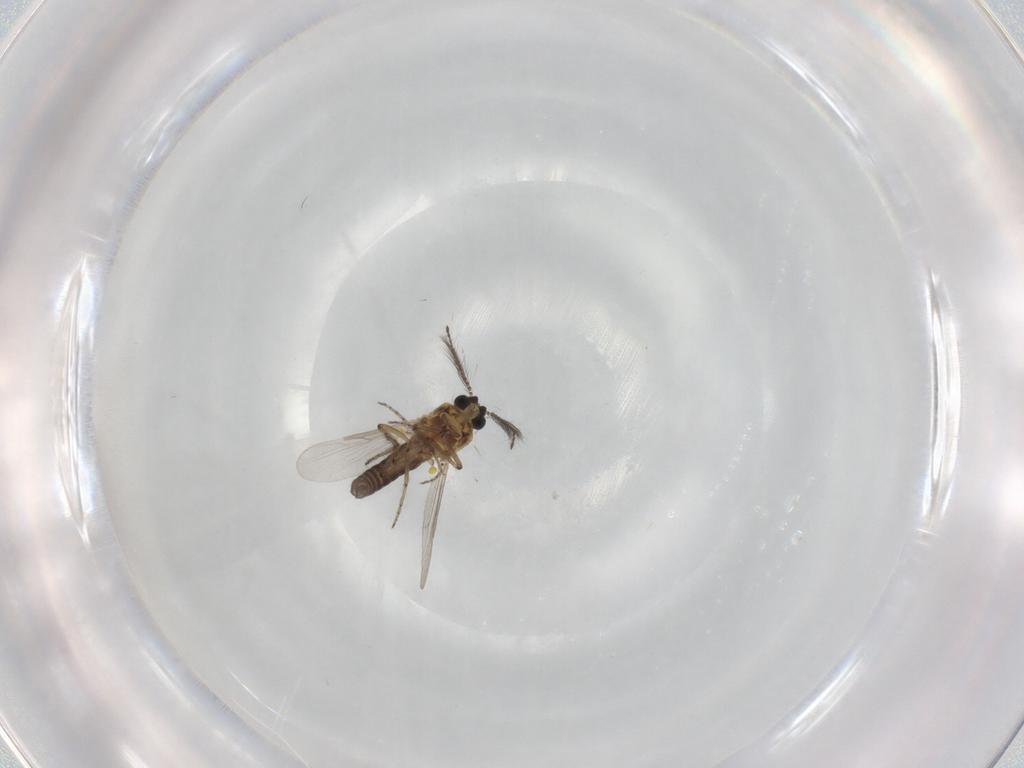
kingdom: Animalia
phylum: Arthropoda
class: Insecta
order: Diptera
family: Ceratopogonidae
